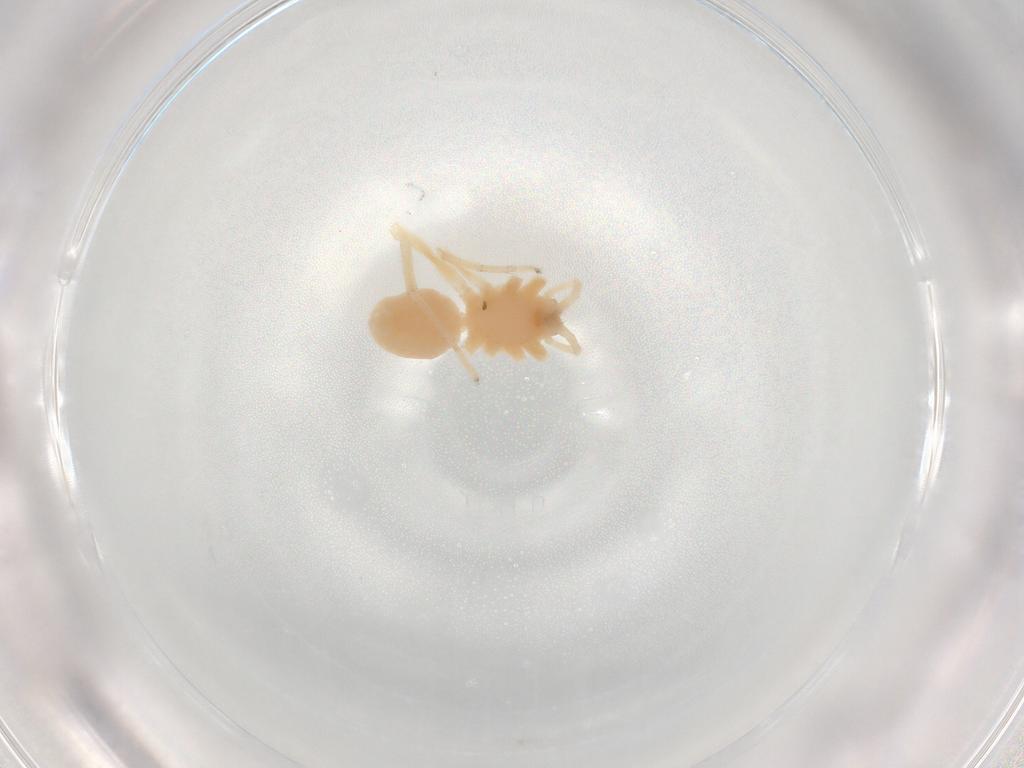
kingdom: Animalia
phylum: Arthropoda
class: Arachnida
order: Araneae
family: Anyphaenidae
